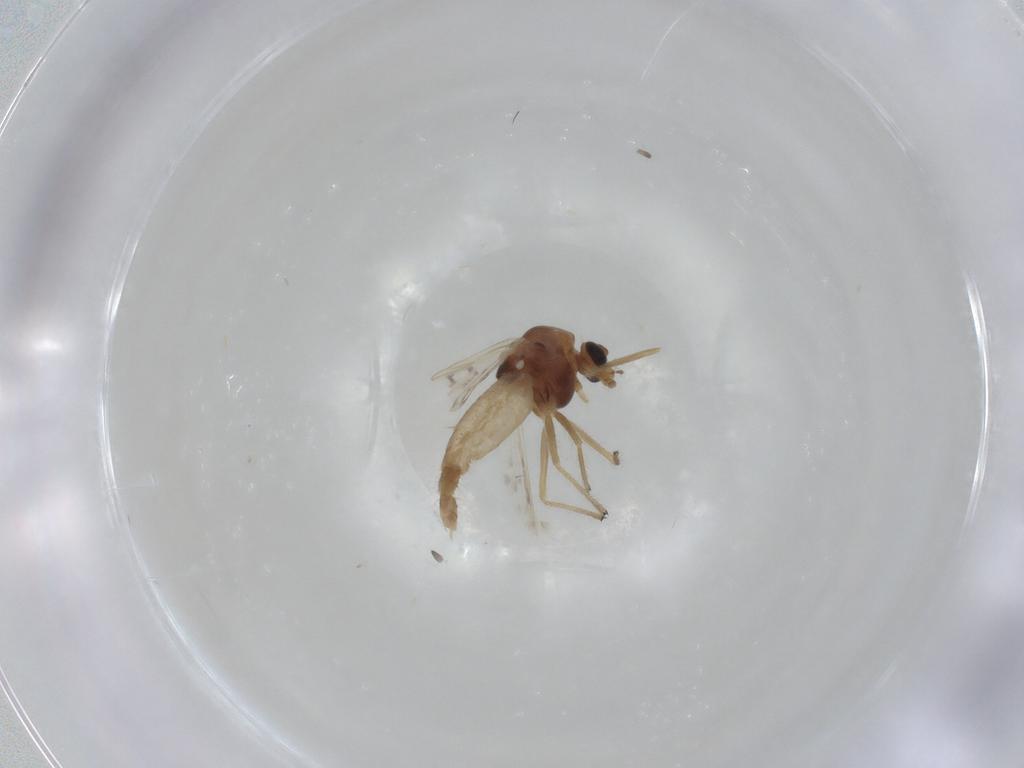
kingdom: Animalia
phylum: Arthropoda
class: Insecta
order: Diptera
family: Chironomidae
